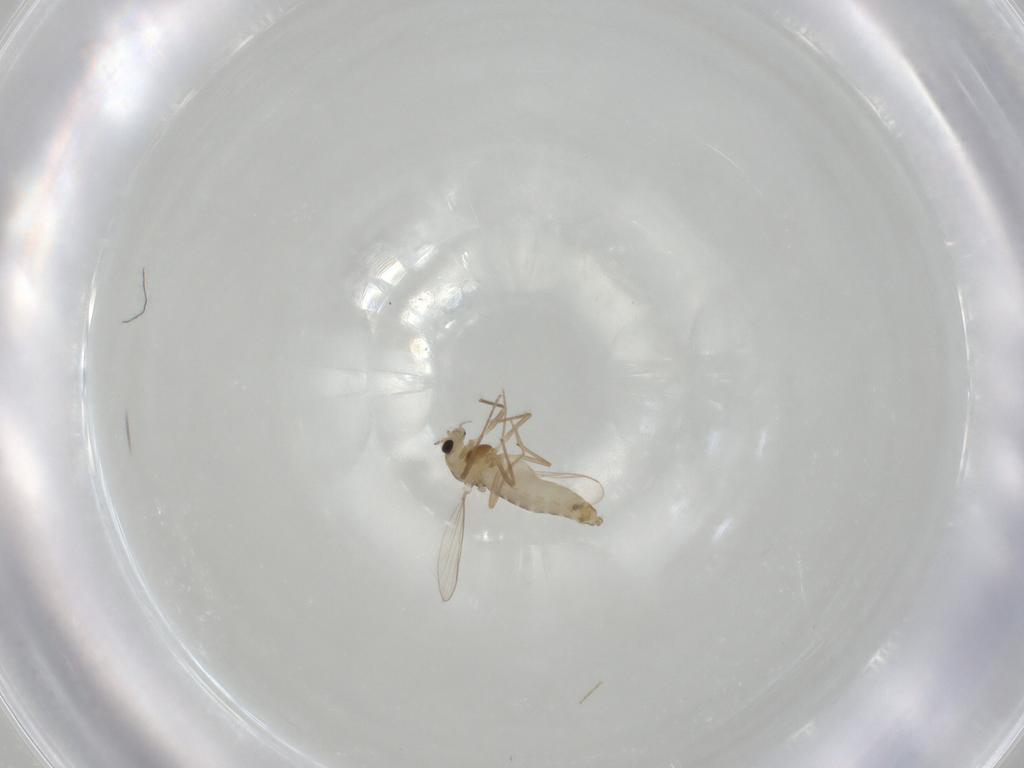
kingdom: Animalia
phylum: Arthropoda
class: Insecta
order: Diptera
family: Chironomidae
